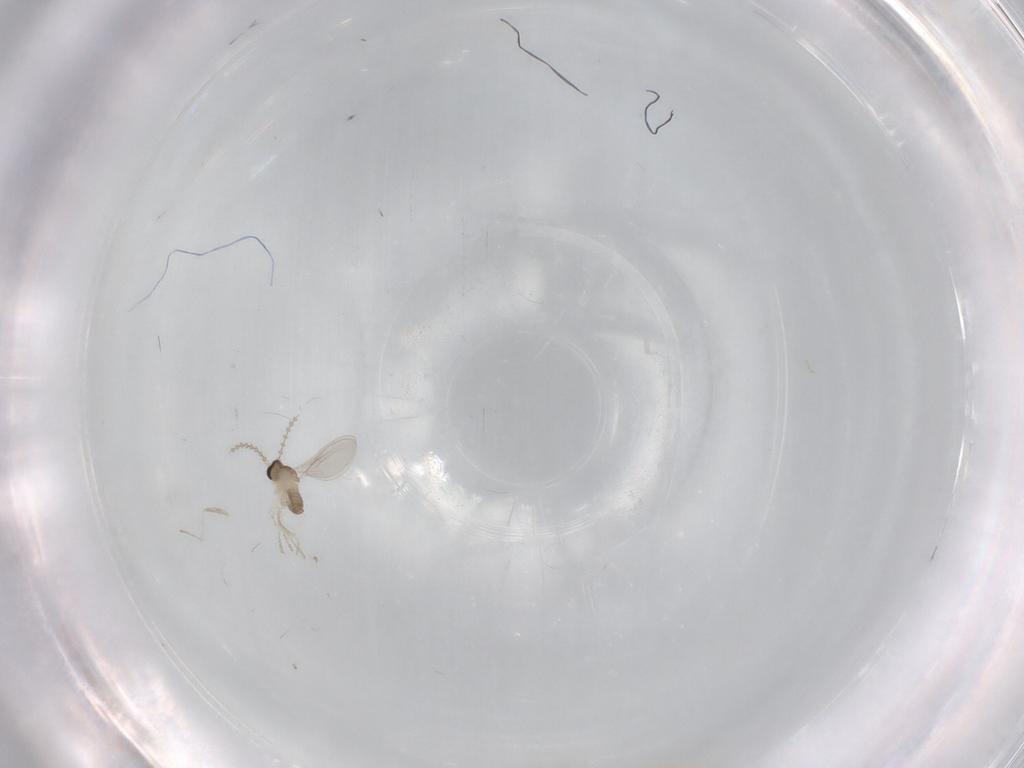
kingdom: Animalia
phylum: Arthropoda
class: Insecta
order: Diptera
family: Cecidomyiidae
